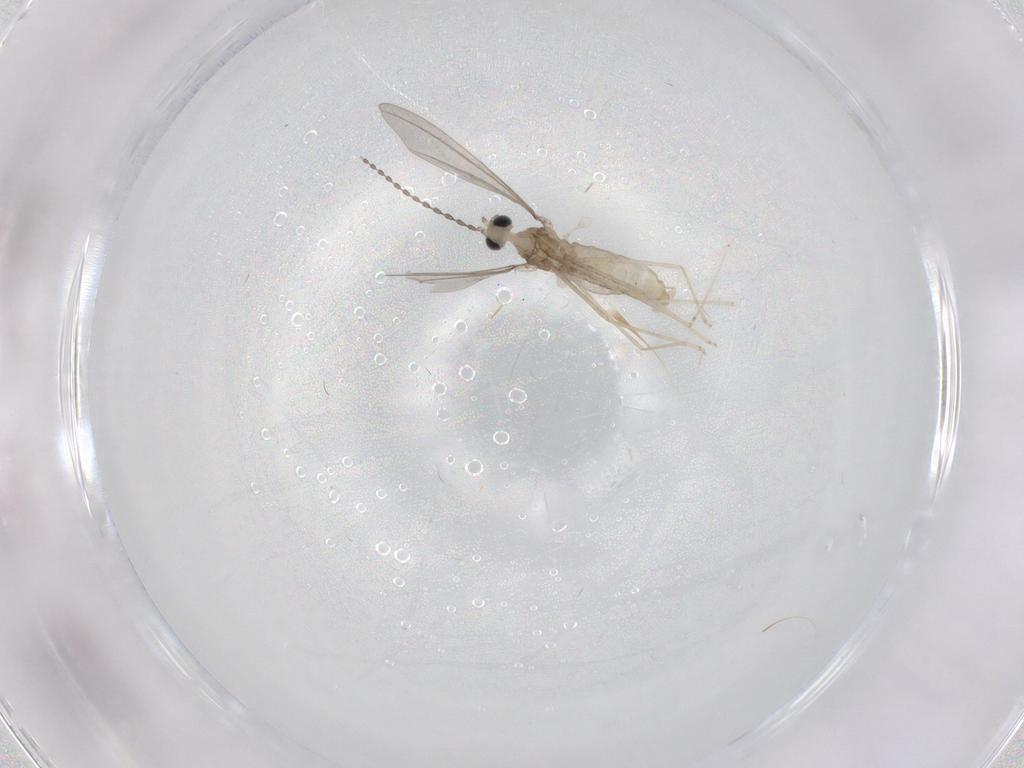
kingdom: Animalia
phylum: Arthropoda
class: Insecta
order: Diptera
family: Cecidomyiidae
